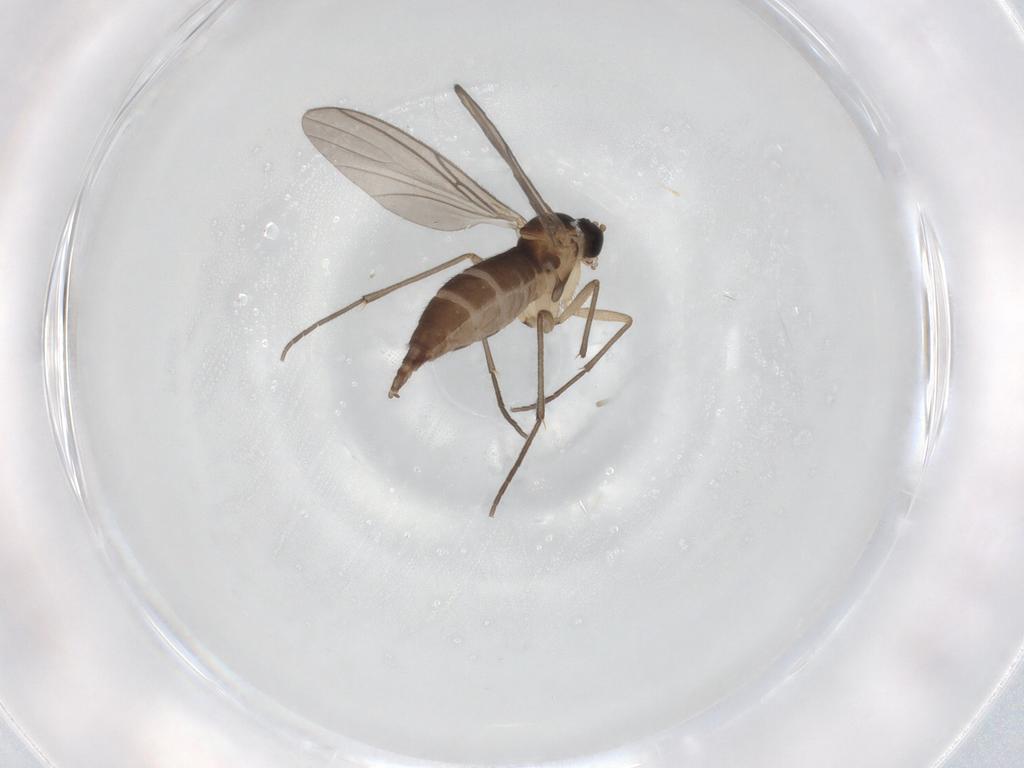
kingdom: Animalia
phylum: Arthropoda
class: Insecta
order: Diptera
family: Sciaridae
